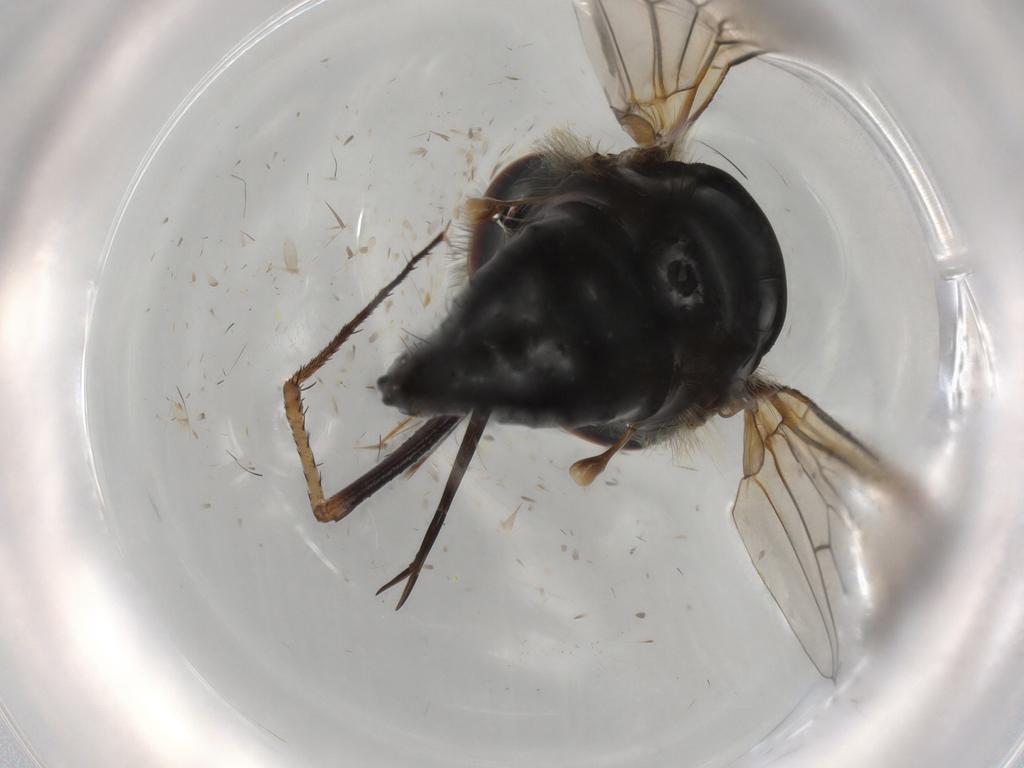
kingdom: Animalia
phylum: Arthropoda
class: Insecta
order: Diptera
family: Bombyliidae
